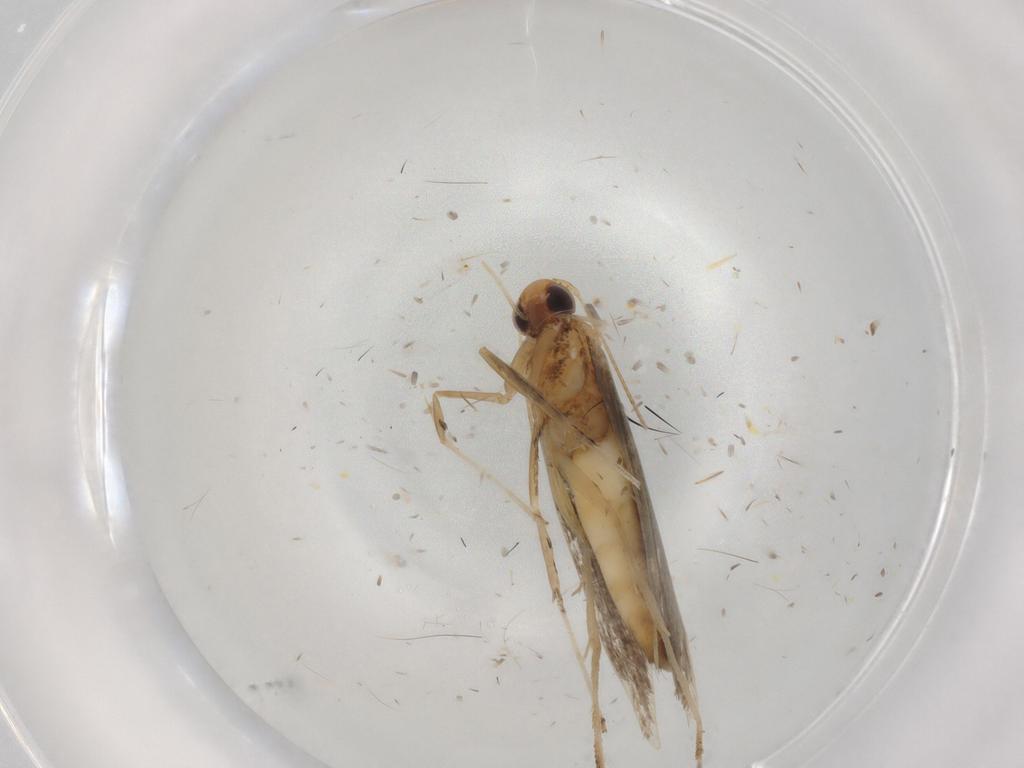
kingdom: Animalia
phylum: Arthropoda
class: Insecta
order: Lepidoptera
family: Gracillariidae
